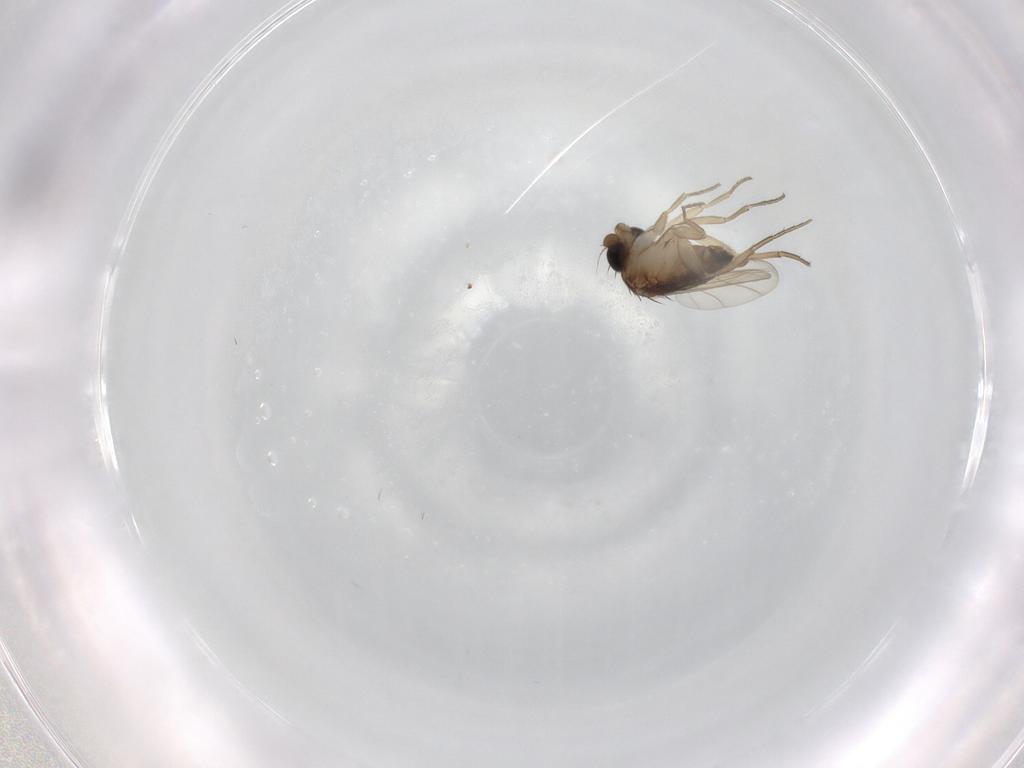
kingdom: Animalia
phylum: Arthropoda
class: Insecta
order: Diptera
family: Cecidomyiidae
